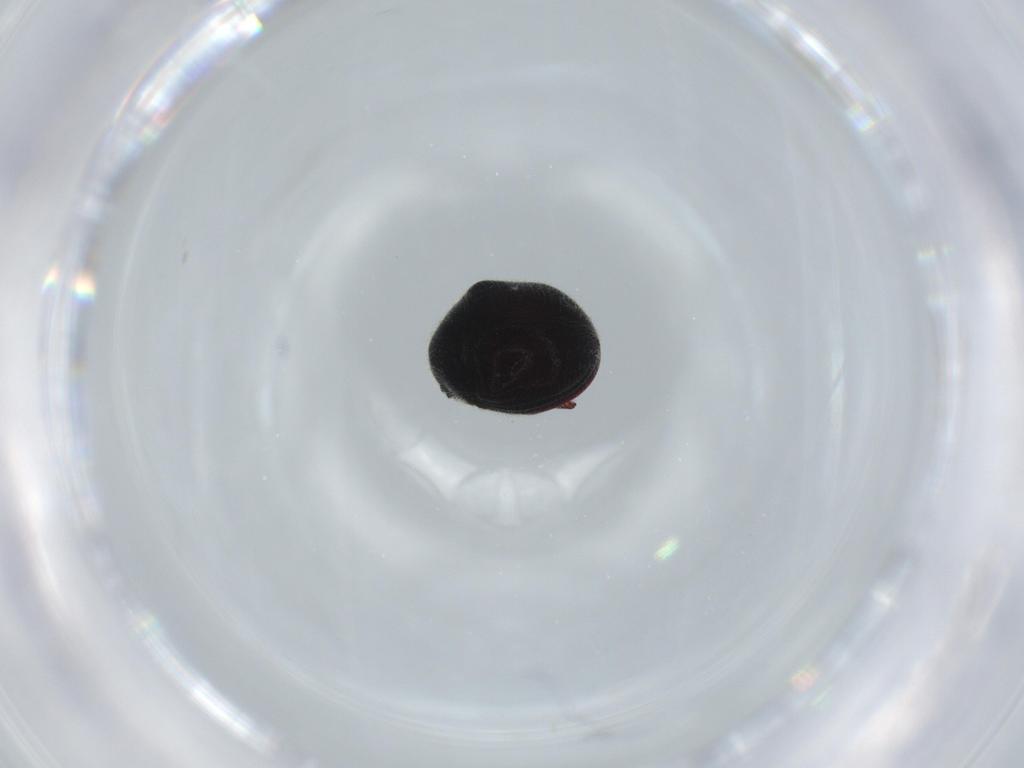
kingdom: Animalia
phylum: Arthropoda
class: Insecta
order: Coleoptera
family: Ptinidae
